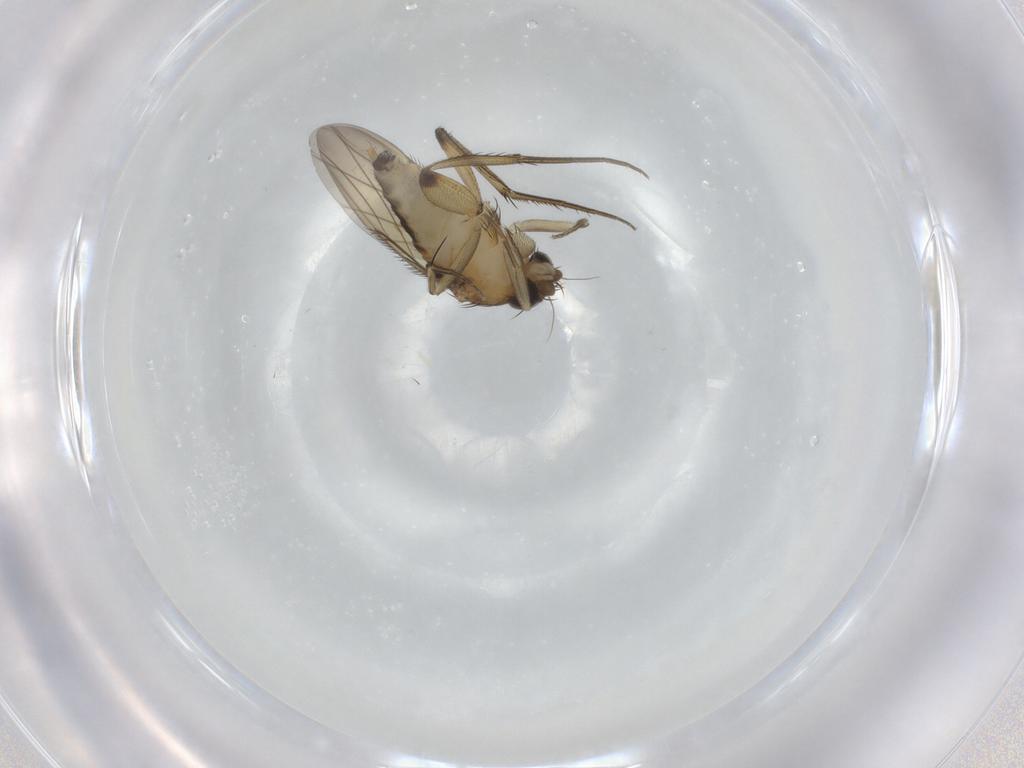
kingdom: Animalia
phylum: Arthropoda
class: Insecta
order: Diptera
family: Phoridae
